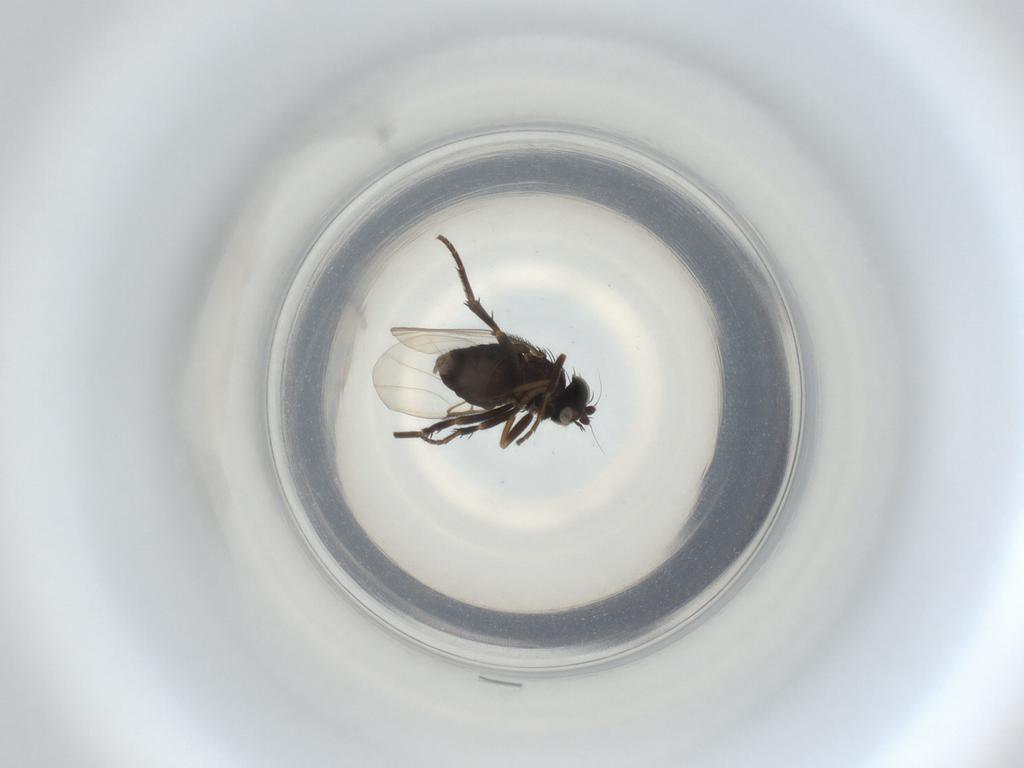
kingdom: Animalia
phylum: Arthropoda
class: Insecta
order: Diptera
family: Phoridae
